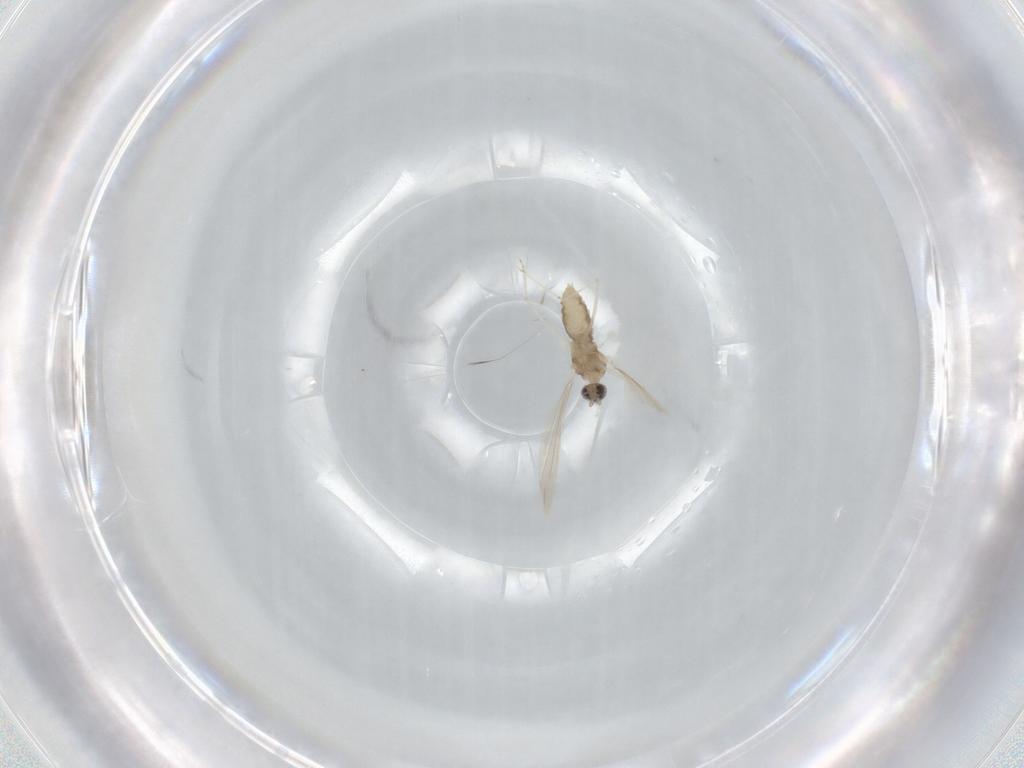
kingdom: Animalia
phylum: Arthropoda
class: Insecta
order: Diptera
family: Cecidomyiidae
